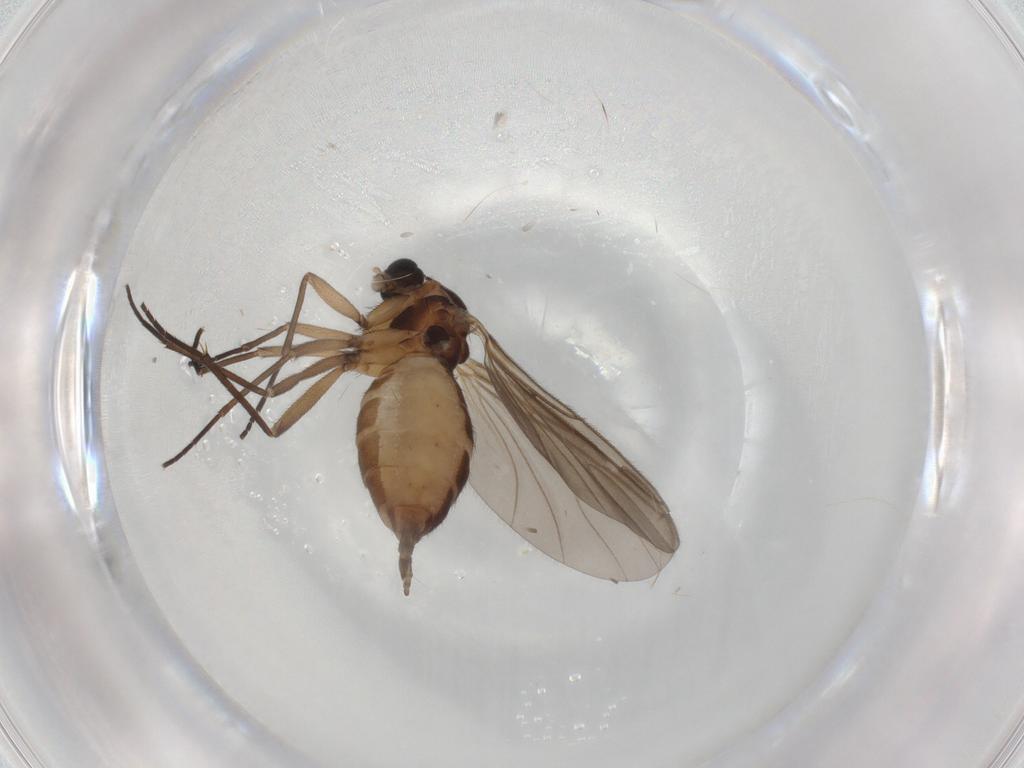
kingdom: Animalia
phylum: Arthropoda
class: Insecta
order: Diptera
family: Sciaridae
